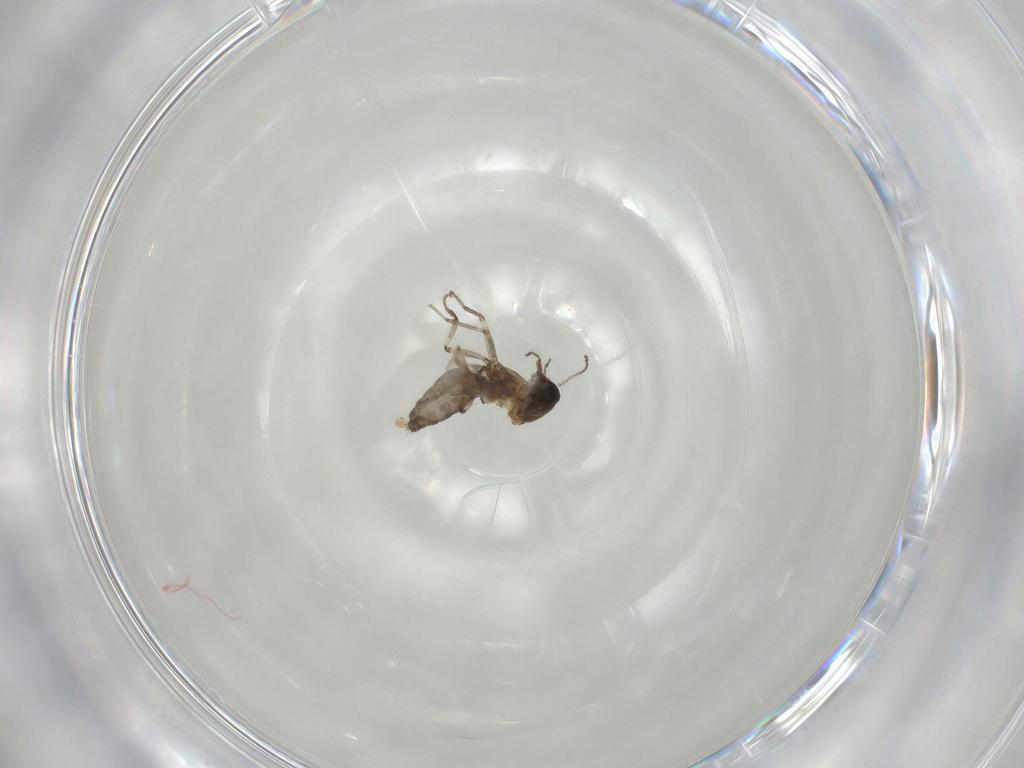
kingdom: Animalia
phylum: Arthropoda
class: Insecta
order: Diptera
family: Ceratopogonidae
